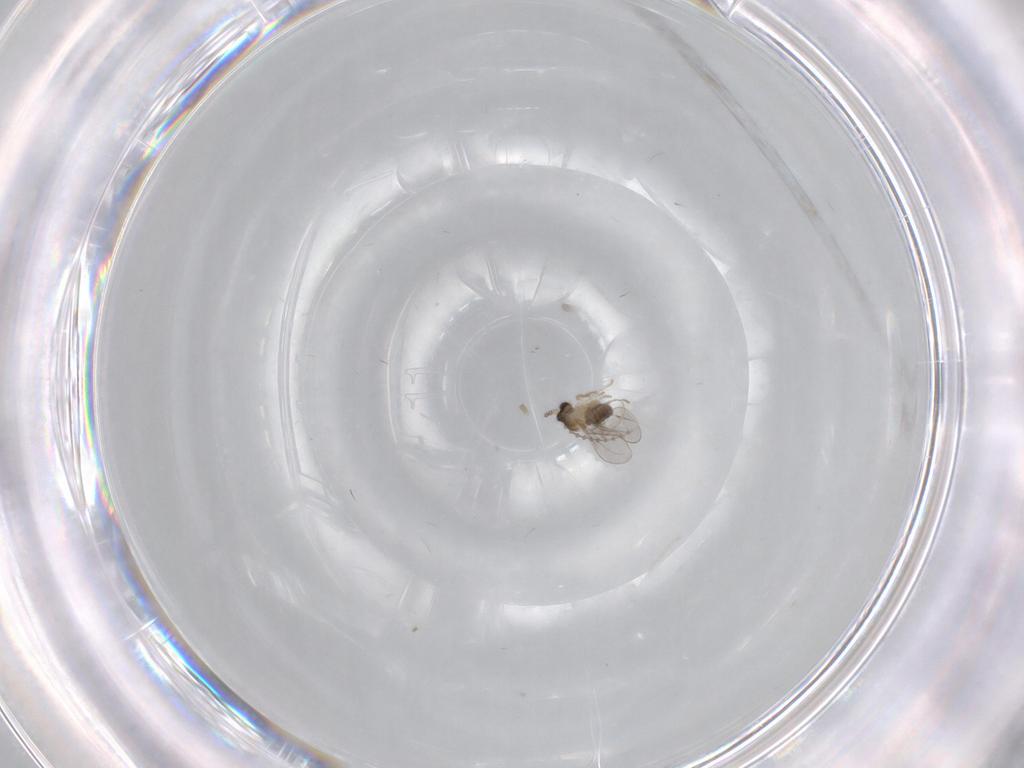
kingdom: Animalia
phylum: Arthropoda
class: Insecta
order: Diptera
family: Cecidomyiidae
